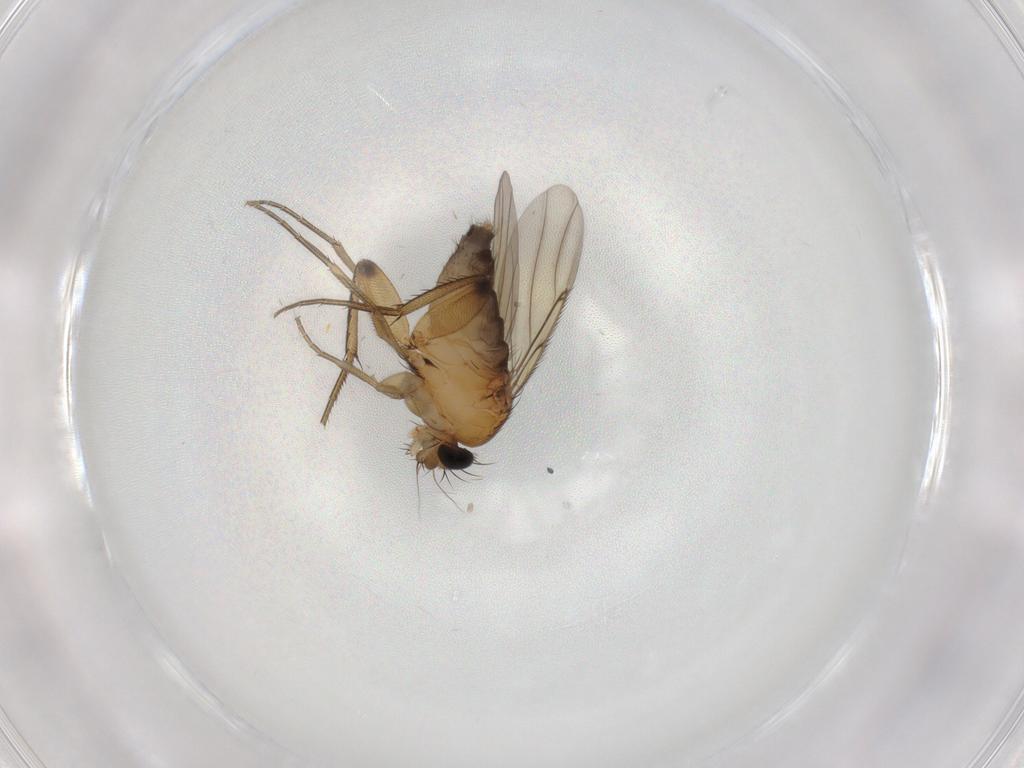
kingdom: Animalia
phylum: Arthropoda
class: Insecta
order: Diptera
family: Phoridae
